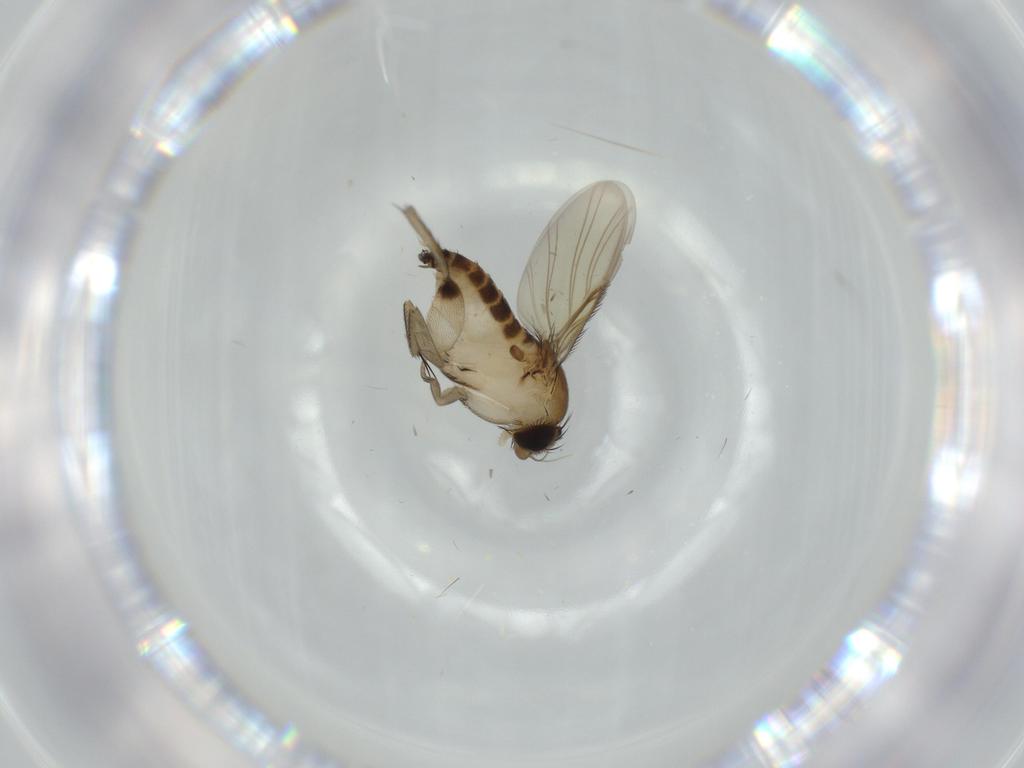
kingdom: Animalia
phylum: Arthropoda
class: Insecta
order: Diptera
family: Phoridae
